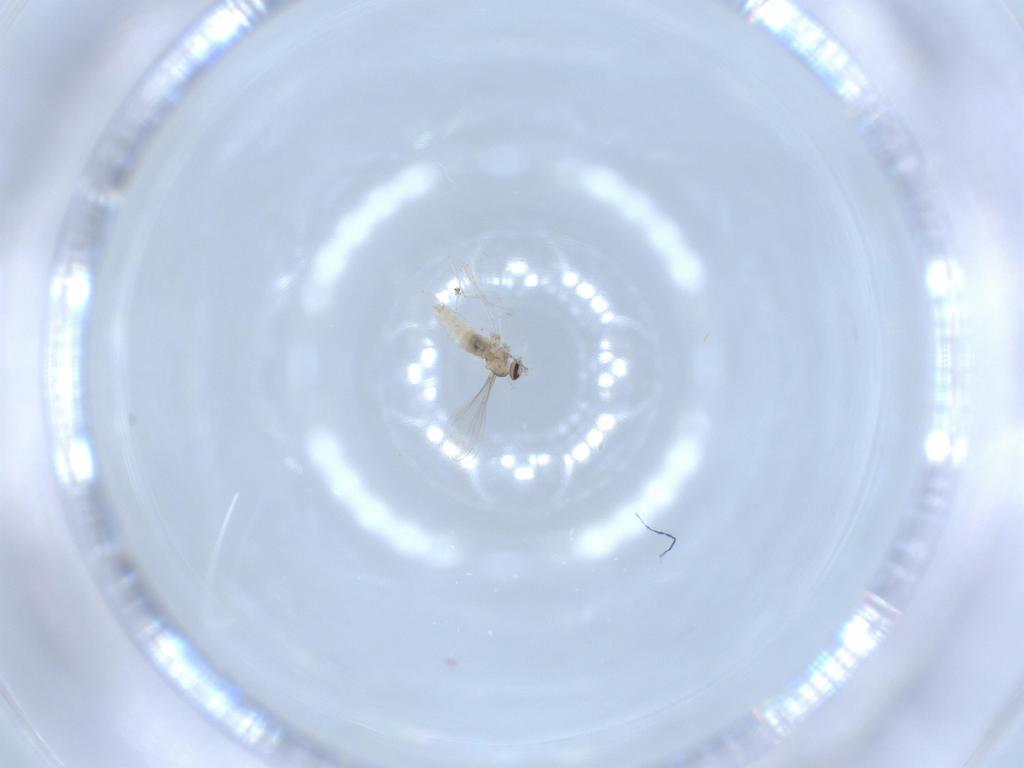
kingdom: Animalia
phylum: Arthropoda
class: Insecta
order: Diptera
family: Cecidomyiidae
